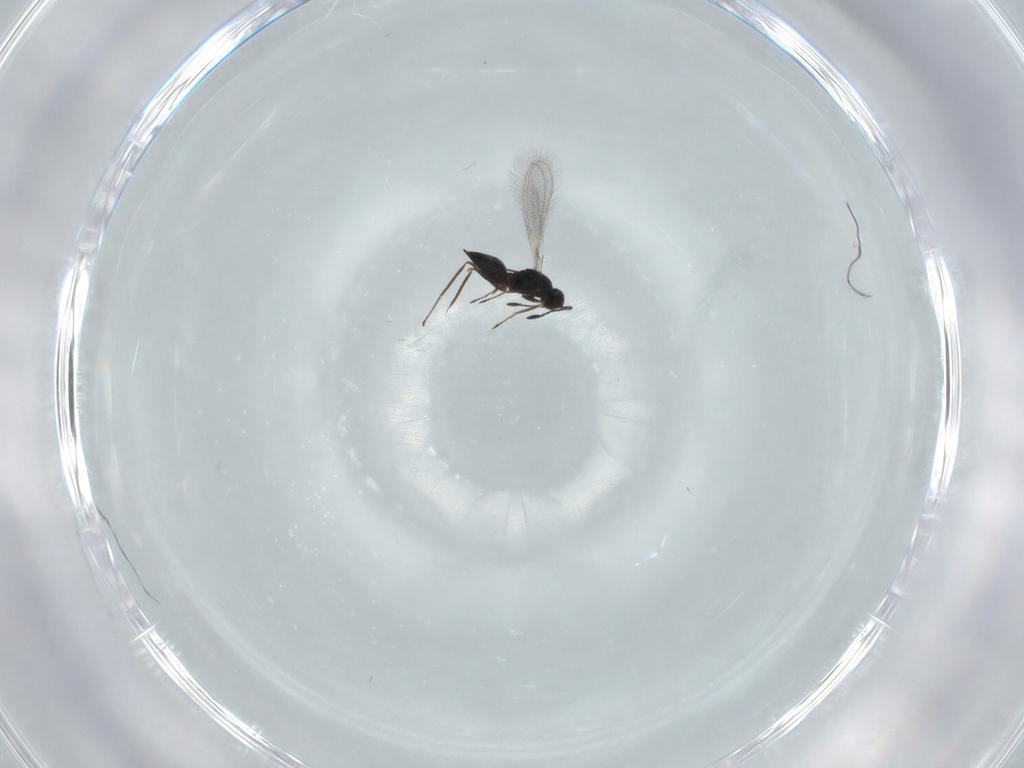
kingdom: Animalia
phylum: Arthropoda
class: Insecta
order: Hymenoptera
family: Mymaridae
